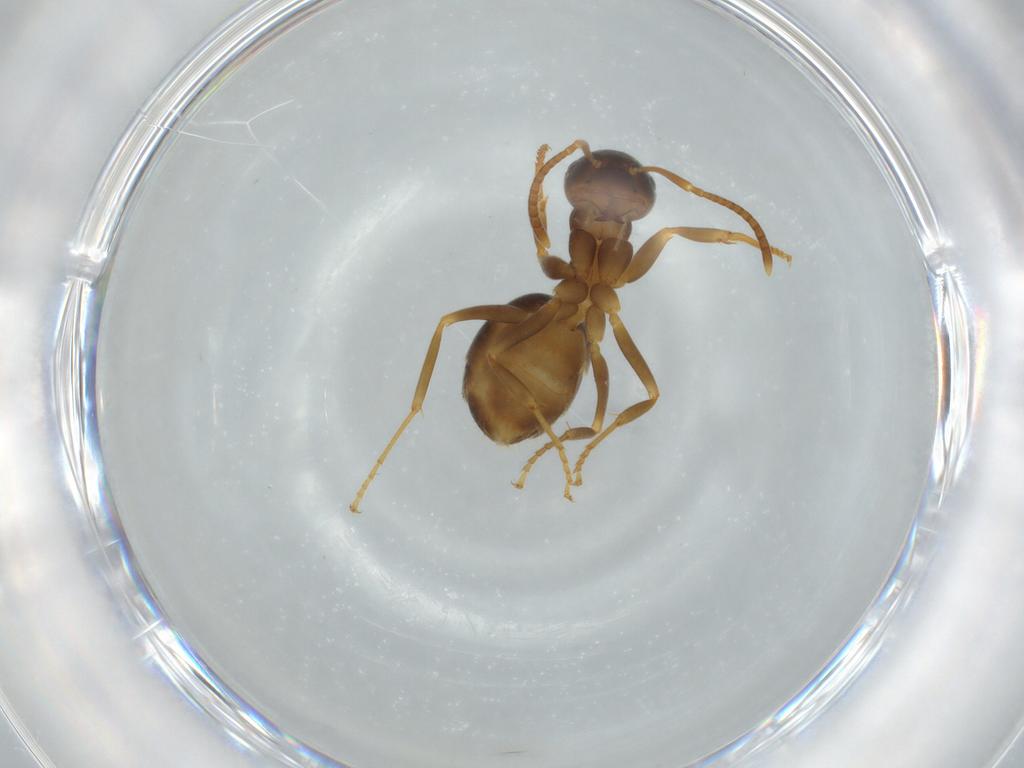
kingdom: Animalia
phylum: Arthropoda
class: Insecta
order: Hymenoptera
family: Formicidae
